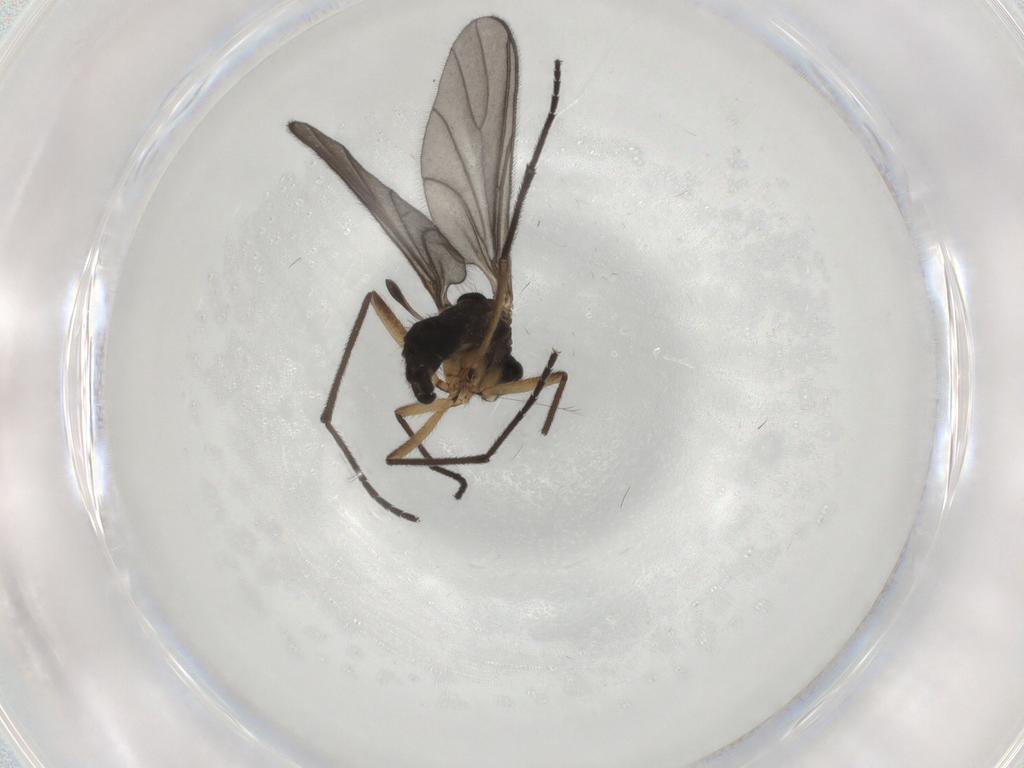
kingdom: Animalia
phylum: Arthropoda
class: Insecta
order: Diptera
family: Sciaridae
